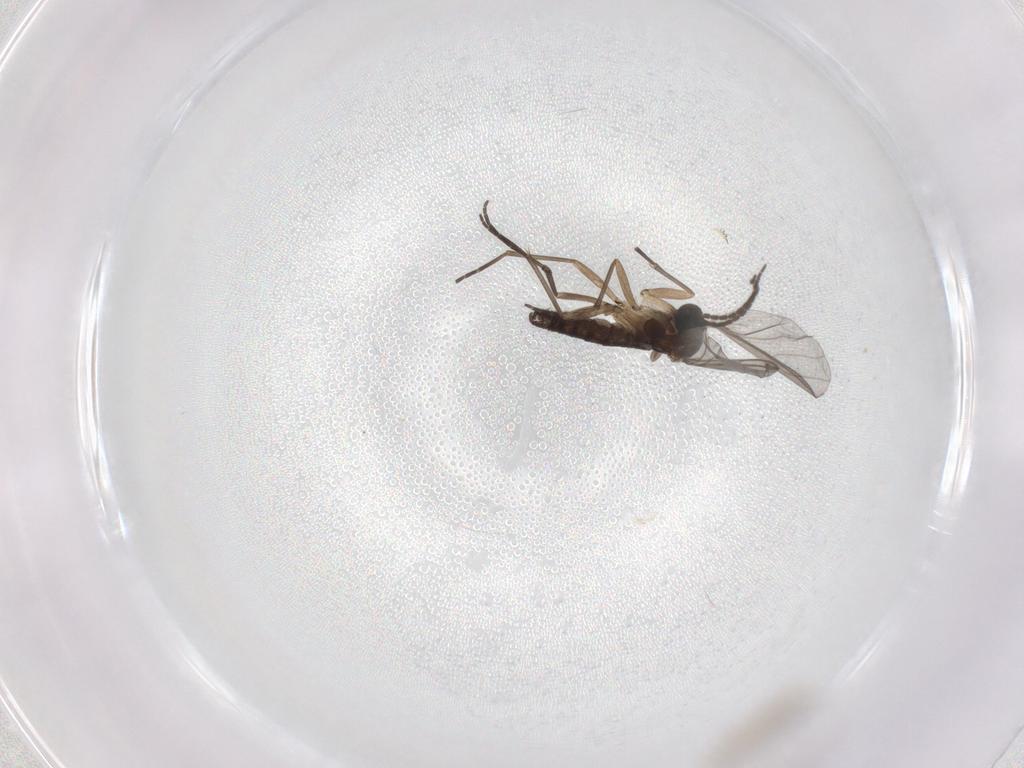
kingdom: Animalia
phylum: Arthropoda
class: Insecta
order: Diptera
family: Sciaridae
